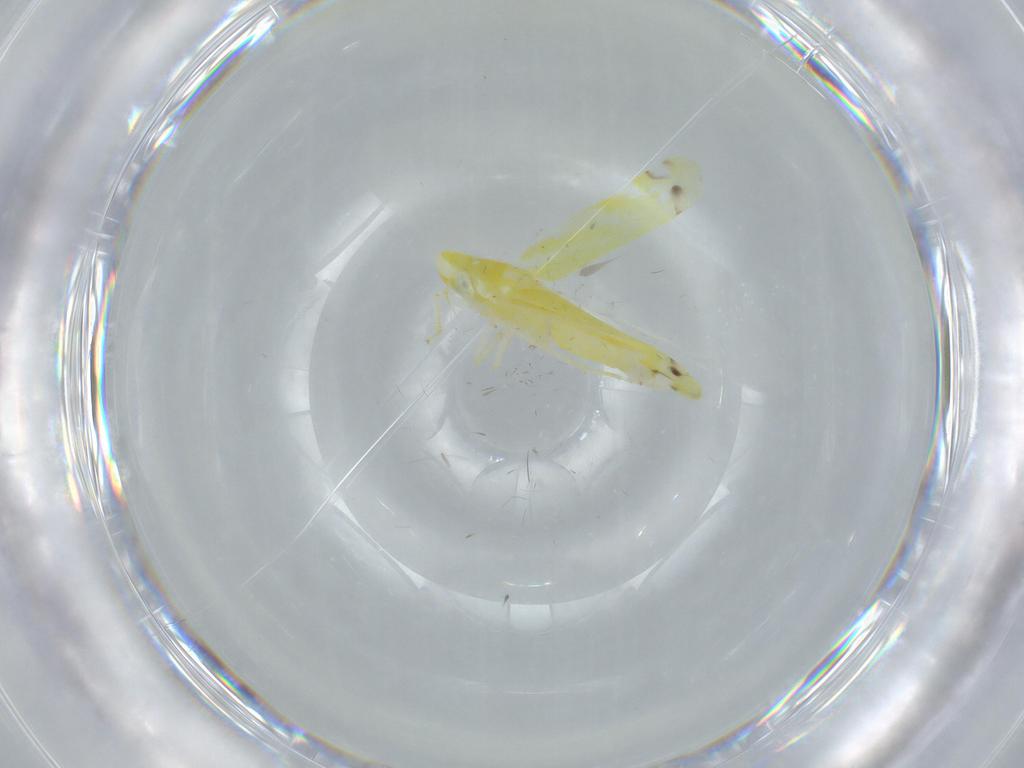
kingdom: Animalia
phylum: Arthropoda
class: Insecta
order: Hemiptera
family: Cicadellidae
